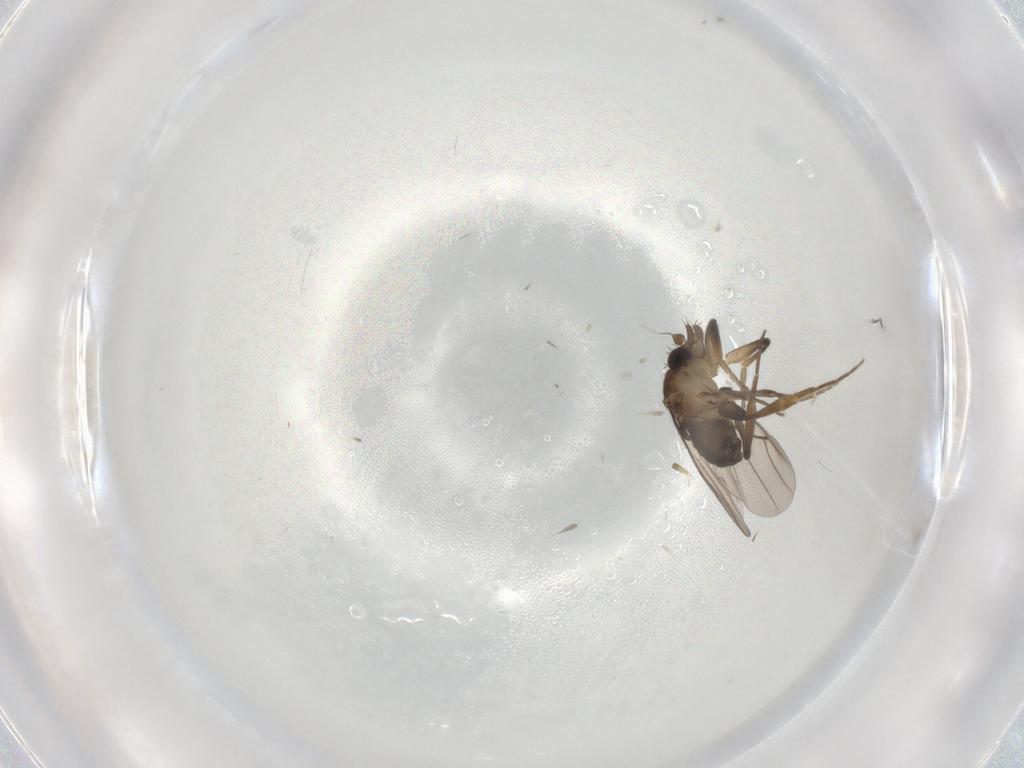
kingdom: Animalia
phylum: Arthropoda
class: Insecta
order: Diptera
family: Phoridae
